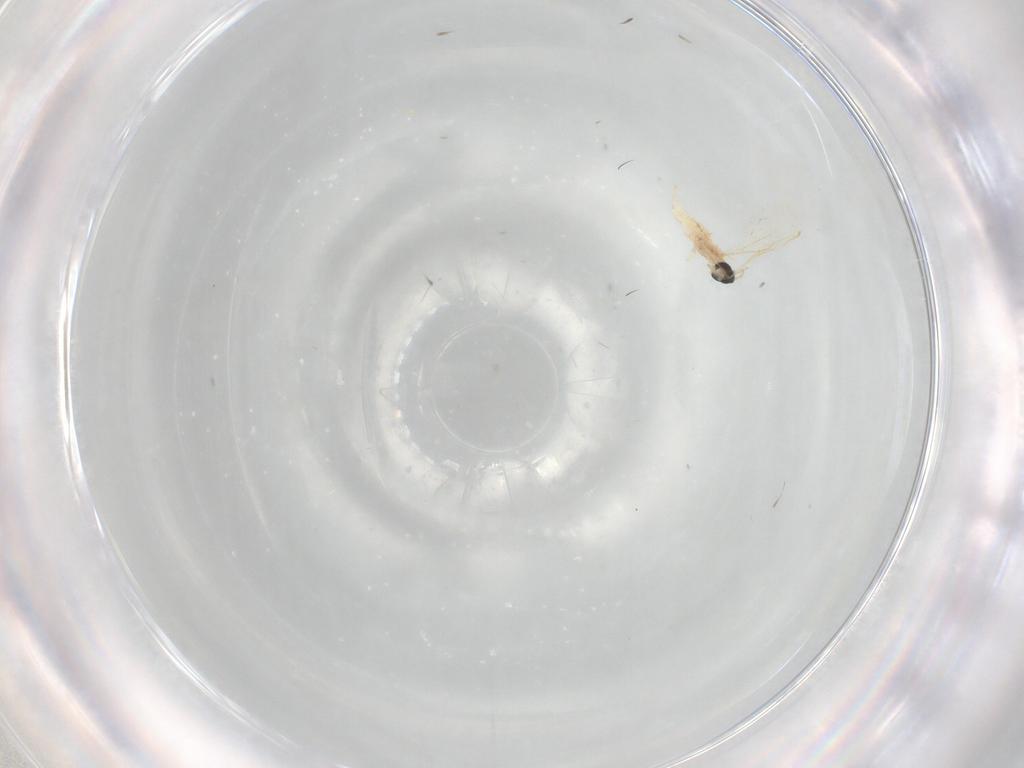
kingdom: Animalia
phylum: Arthropoda
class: Insecta
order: Diptera
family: Cecidomyiidae
